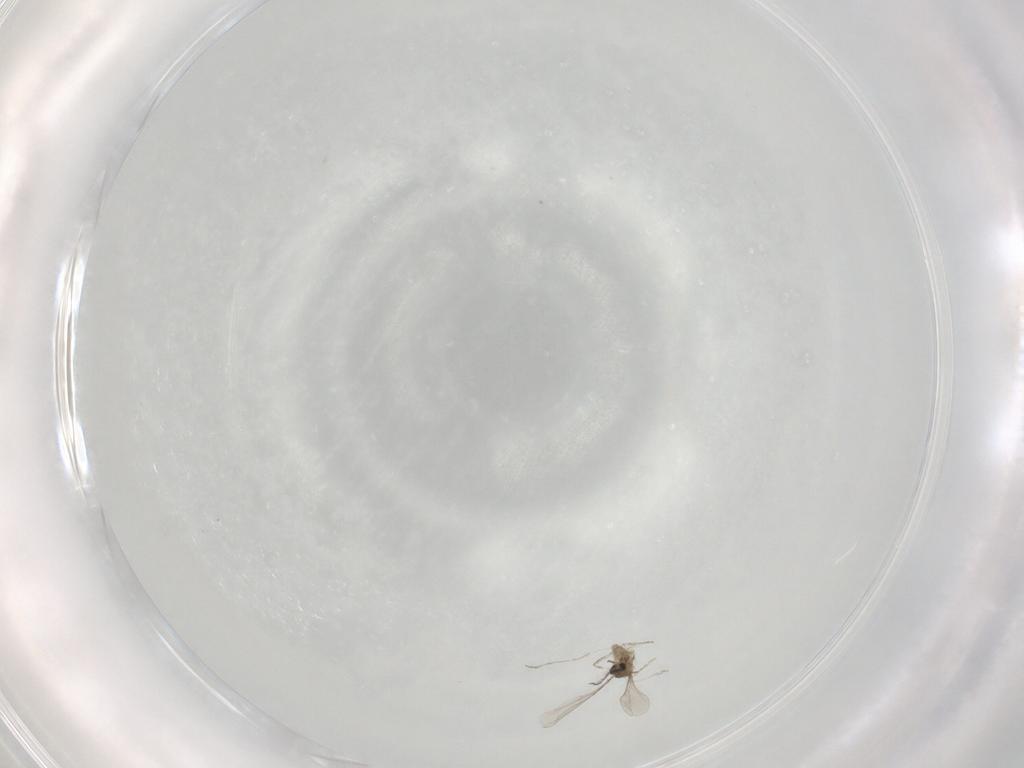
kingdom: Animalia
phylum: Arthropoda
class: Insecta
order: Diptera
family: Cecidomyiidae
